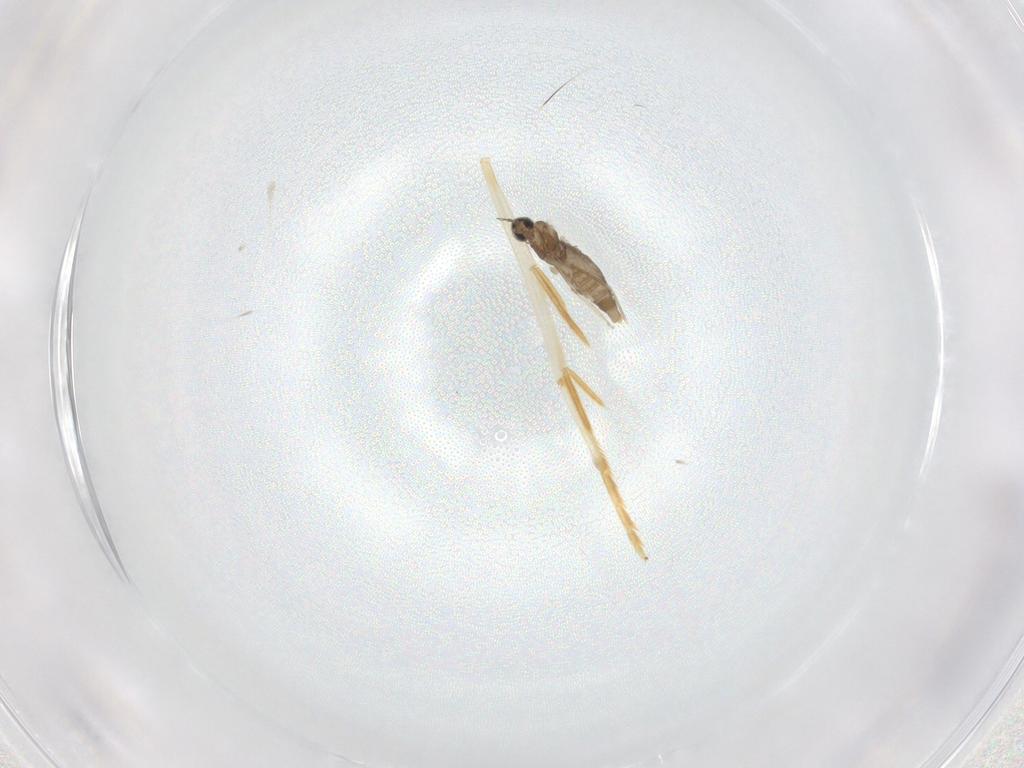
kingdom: Animalia
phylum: Arthropoda
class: Insecta
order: Diptera
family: Cecidomyiidae
